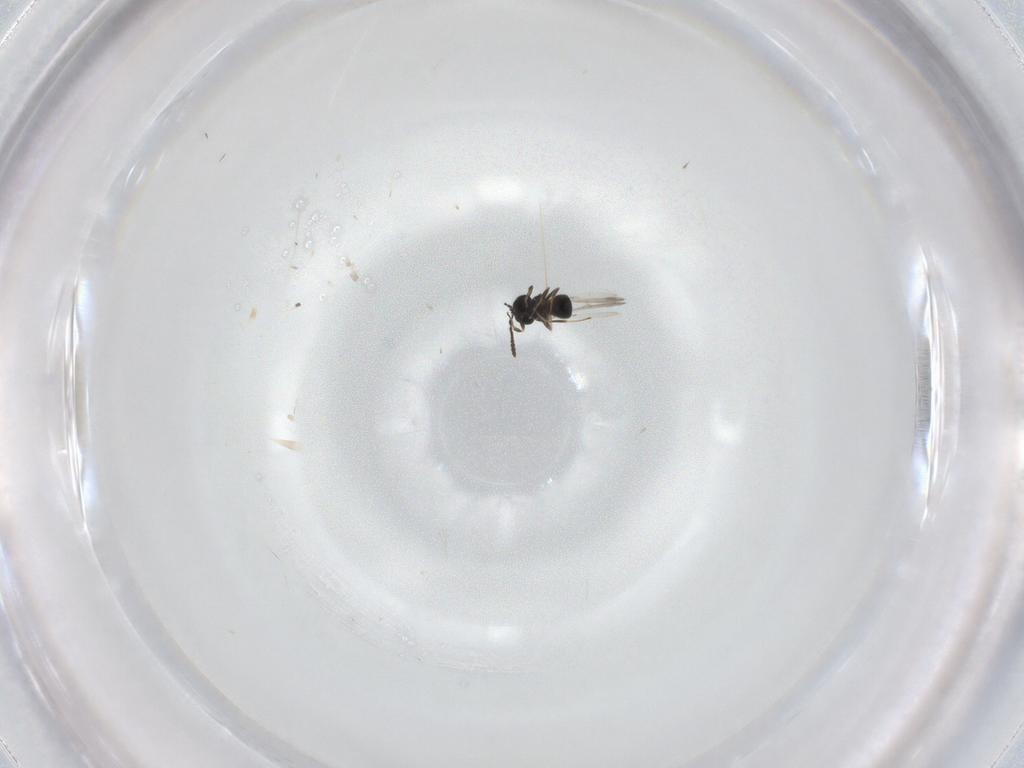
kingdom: Animalia
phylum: Arthropoda
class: Insecta
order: Hymenoptera
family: Scelionidae
